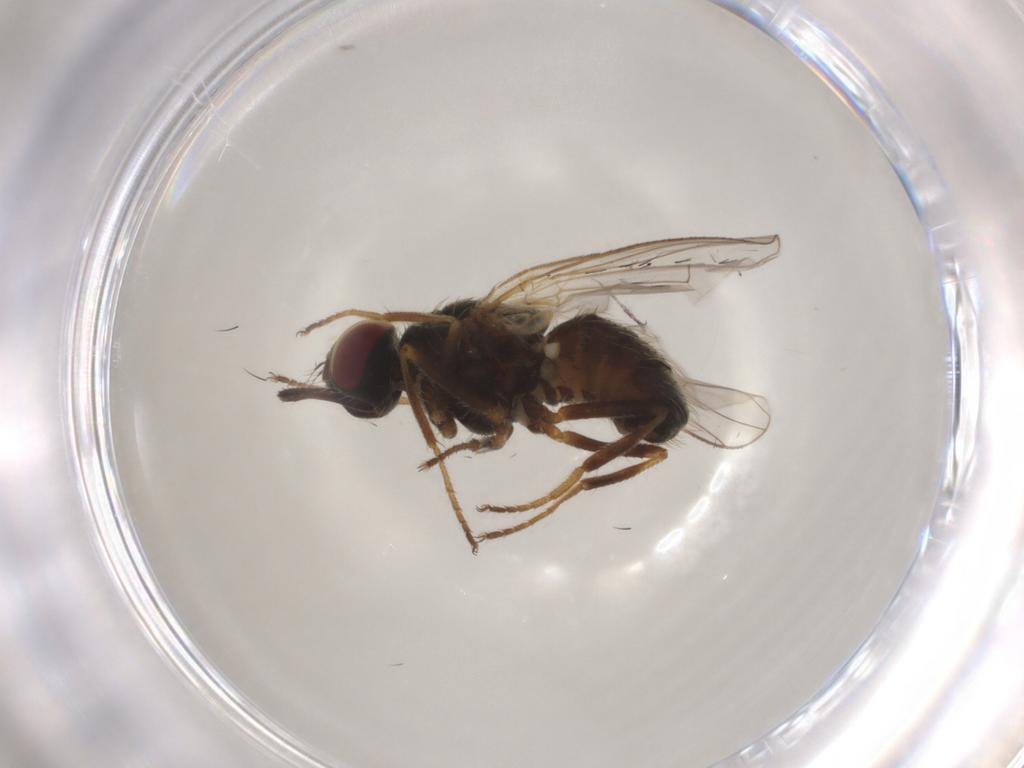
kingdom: Animalia
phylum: Arthropoda
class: Insecta
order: Diptera
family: Muscidae
